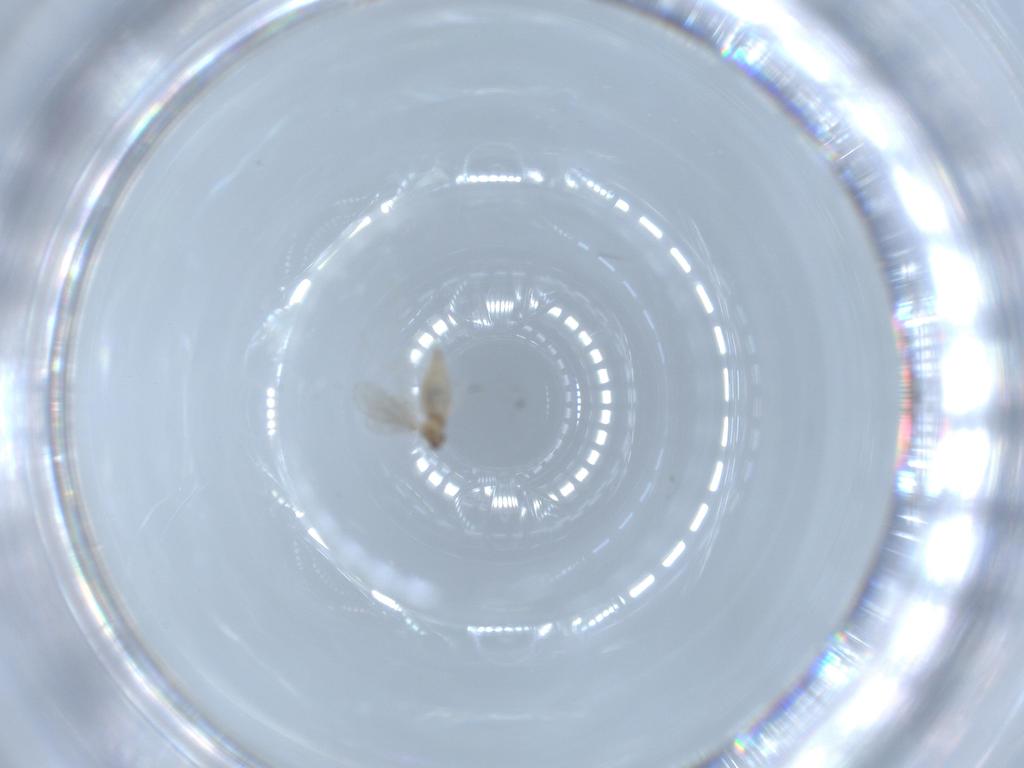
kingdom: Animalia
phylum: Arthropoda
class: Insecta
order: Diptera
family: Cecidomyiidae
